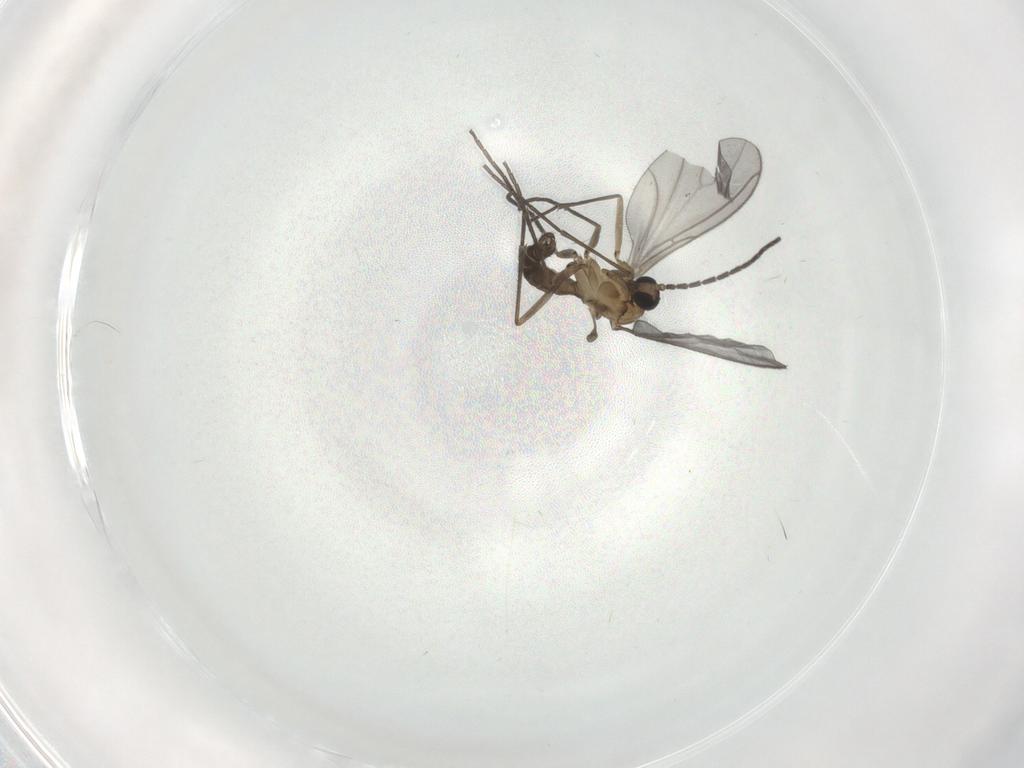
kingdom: Animalia
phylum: Arthropoda
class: Insecta
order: Diptera
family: Sciaridae
